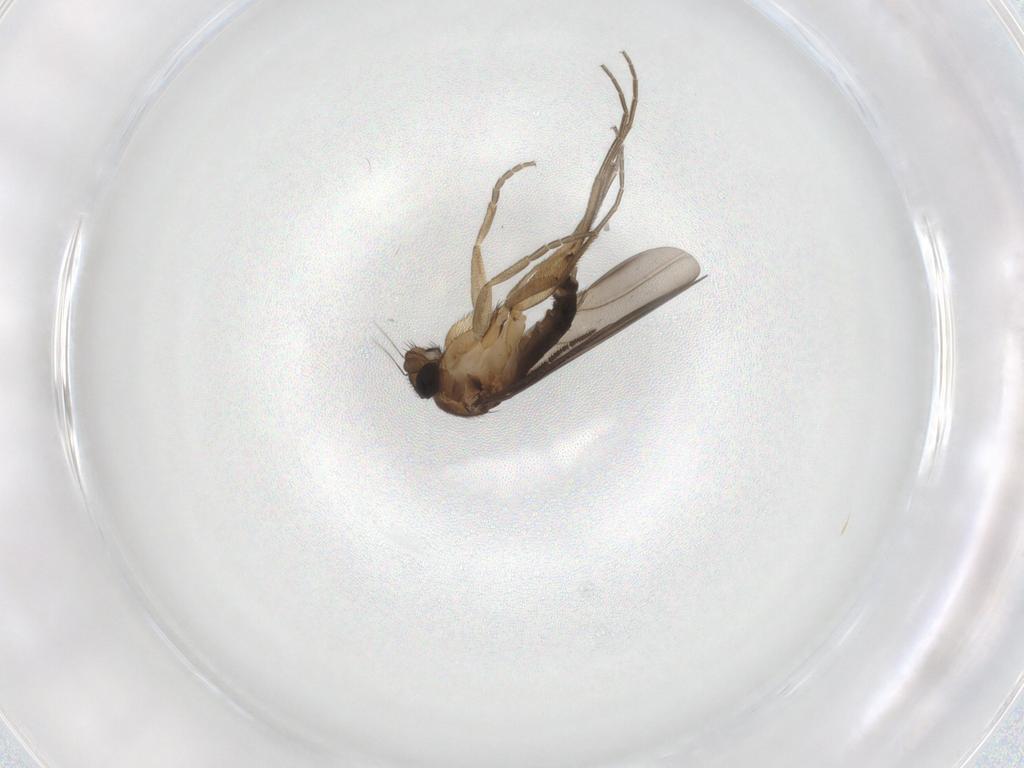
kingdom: Animalia
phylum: Arthropoda
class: Insecta
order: Diptera
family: Phoridae
